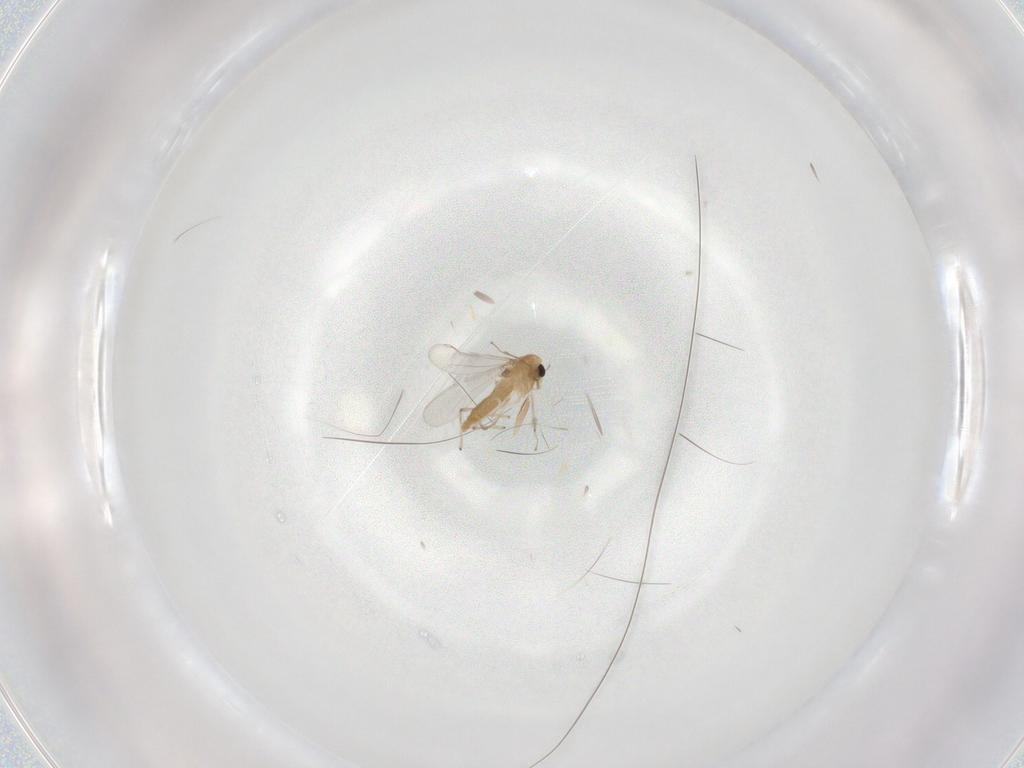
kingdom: Animalia
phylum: Arthropoda
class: Insecta
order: Diptera
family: Chironomidae
